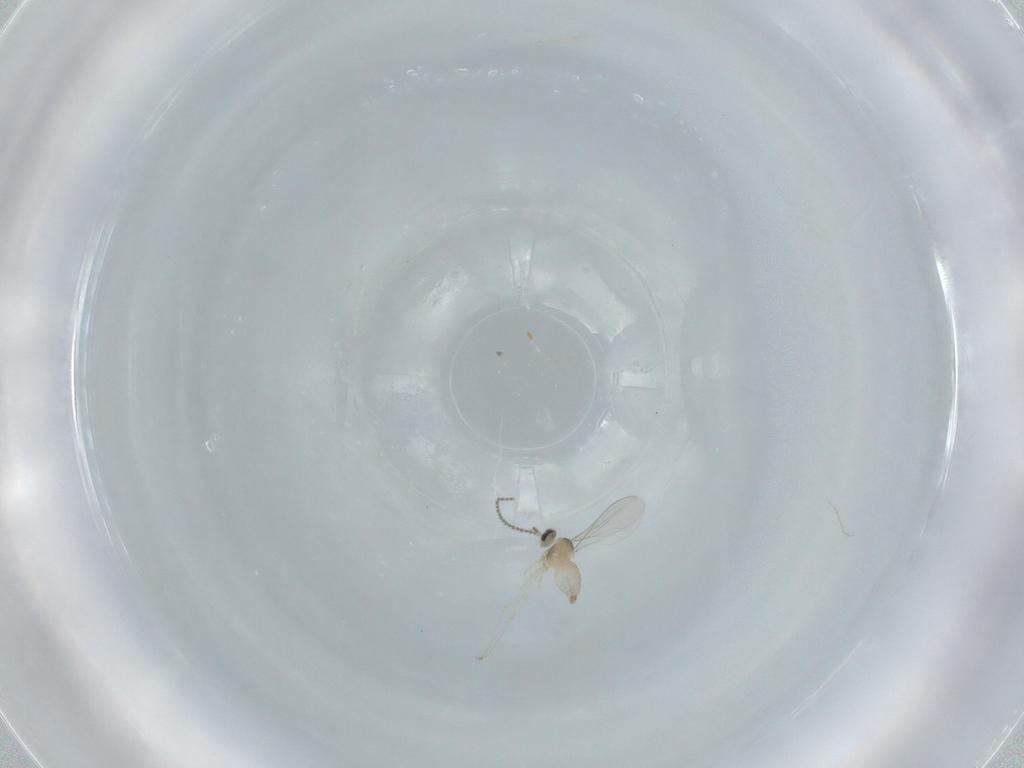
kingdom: Animalia
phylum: Arthropoda
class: Insecta
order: Diptera
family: Cecidomyiidae
